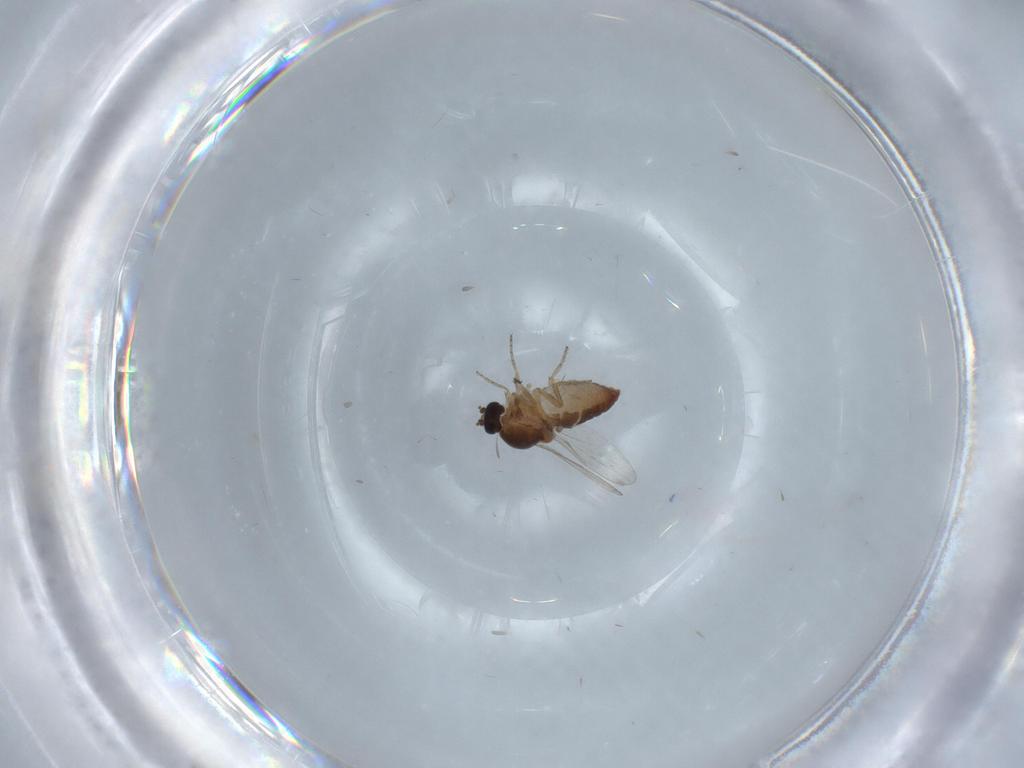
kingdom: Animalia
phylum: Arthropoda
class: Insecta
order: Diptera
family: Ceratopogonidae
